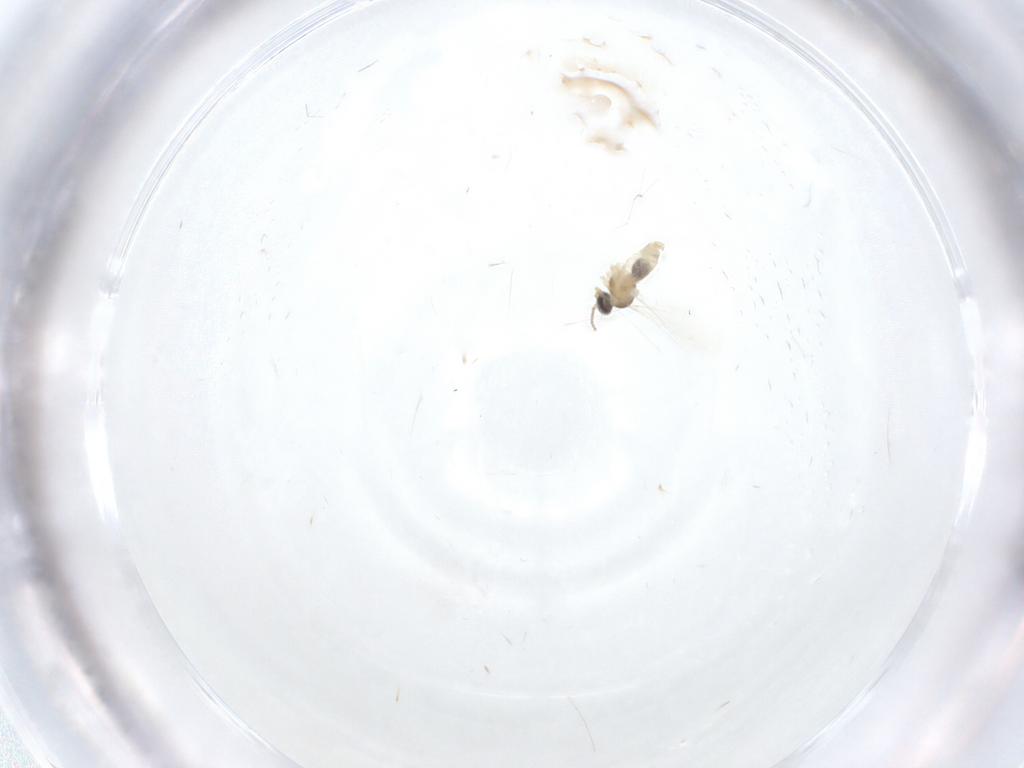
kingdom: Animalia
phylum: Arthropoda
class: Insecta
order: Diptera
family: Cecidomyiidae
